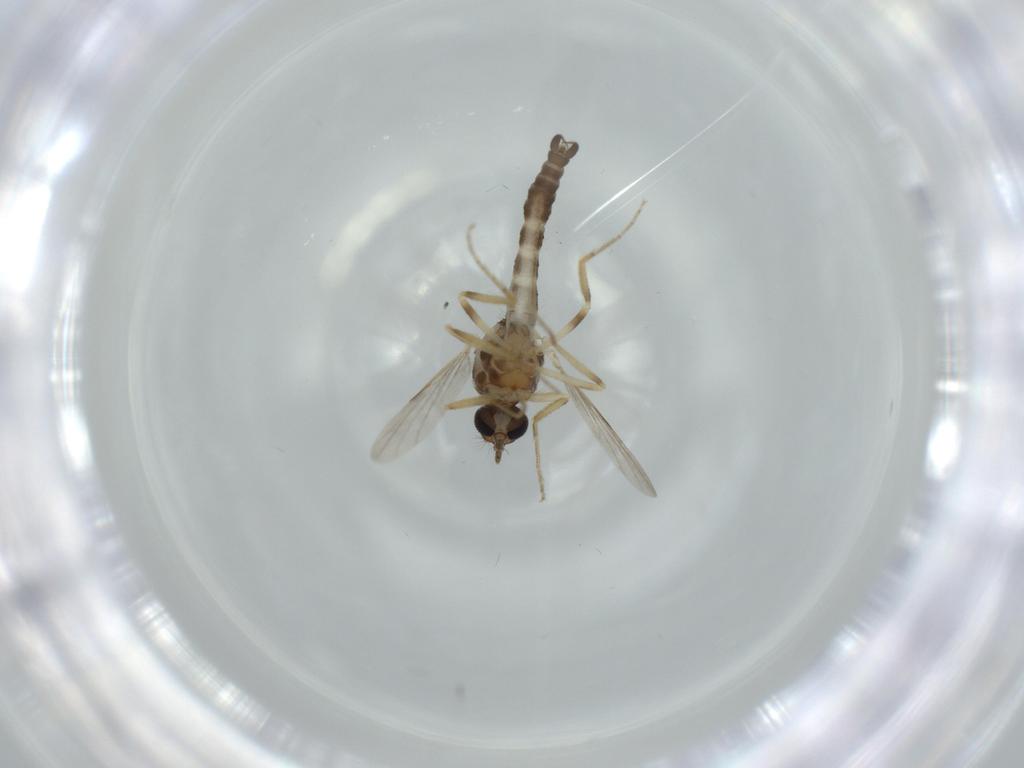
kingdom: Animalia
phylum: Arthropoda
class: Insecta
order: Diptera
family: Ceratopogonidae
